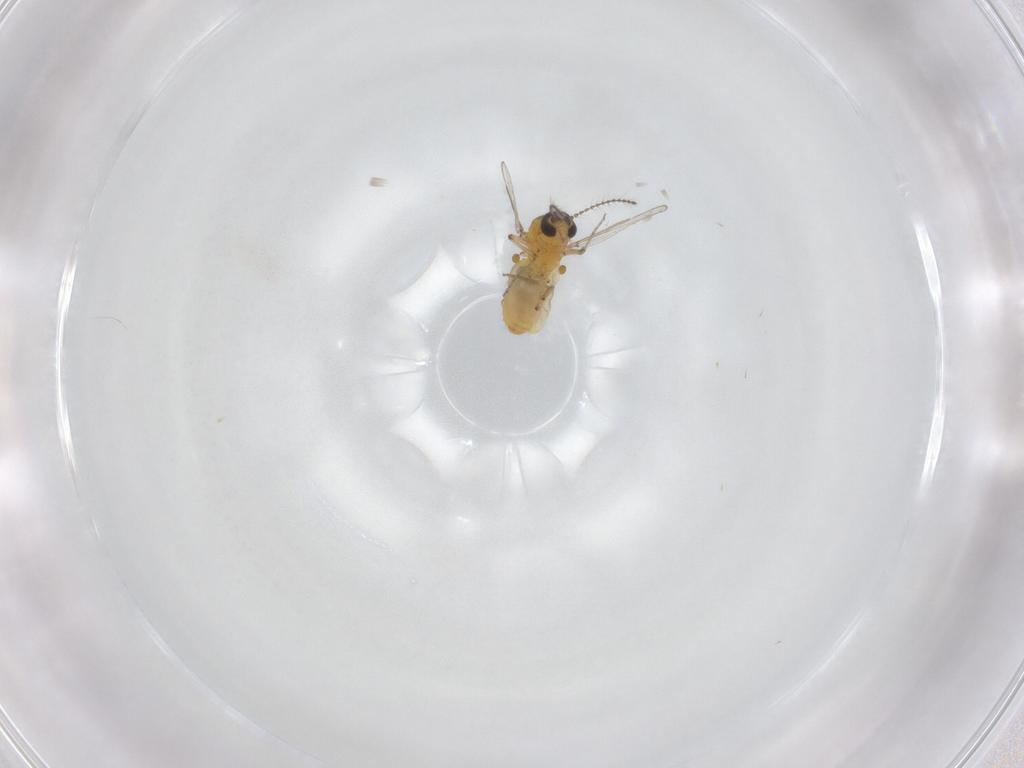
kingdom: Animalia
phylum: Arthropoda
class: Insecta
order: Diptera
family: Ceratopogonidae
